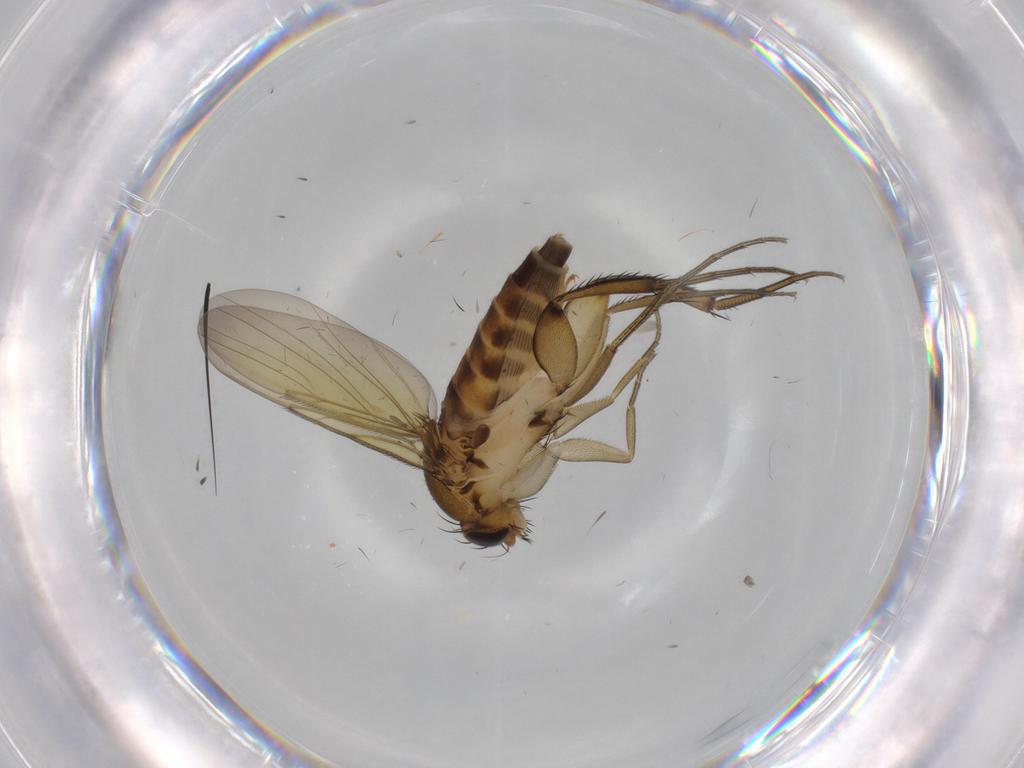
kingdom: Animalia
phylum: Arthropoda
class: Insecta
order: Diptera
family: Phoridae
